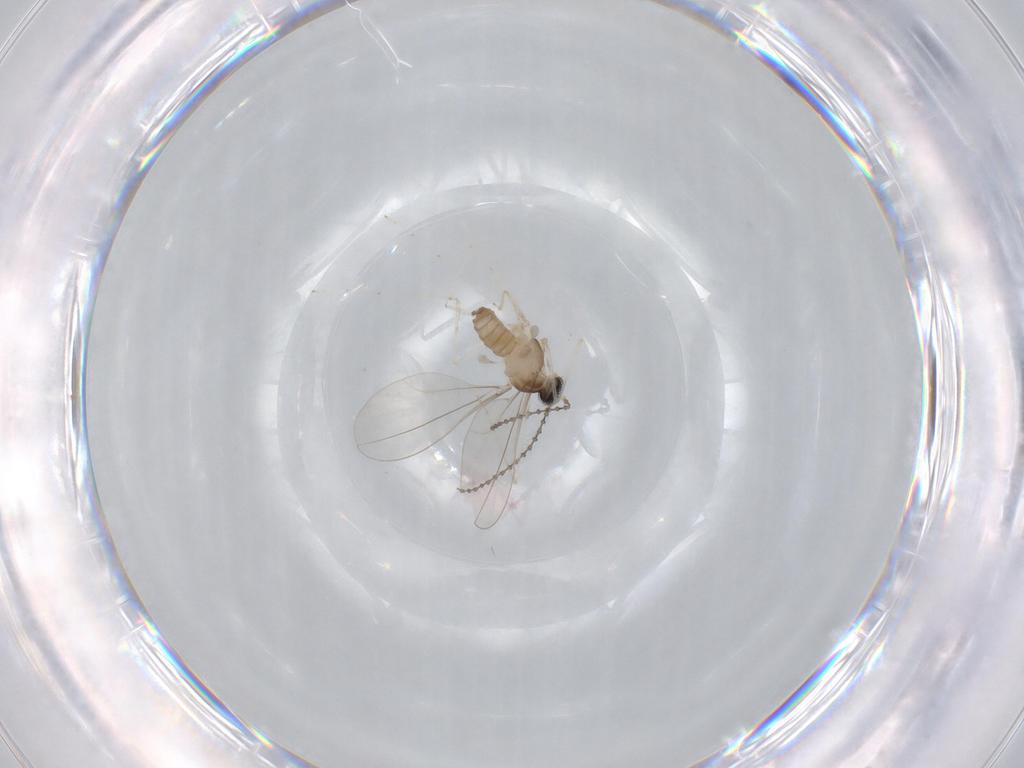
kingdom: Animalia
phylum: Arthropoda
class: Insecta
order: Diptera
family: Cecidomyiidae
